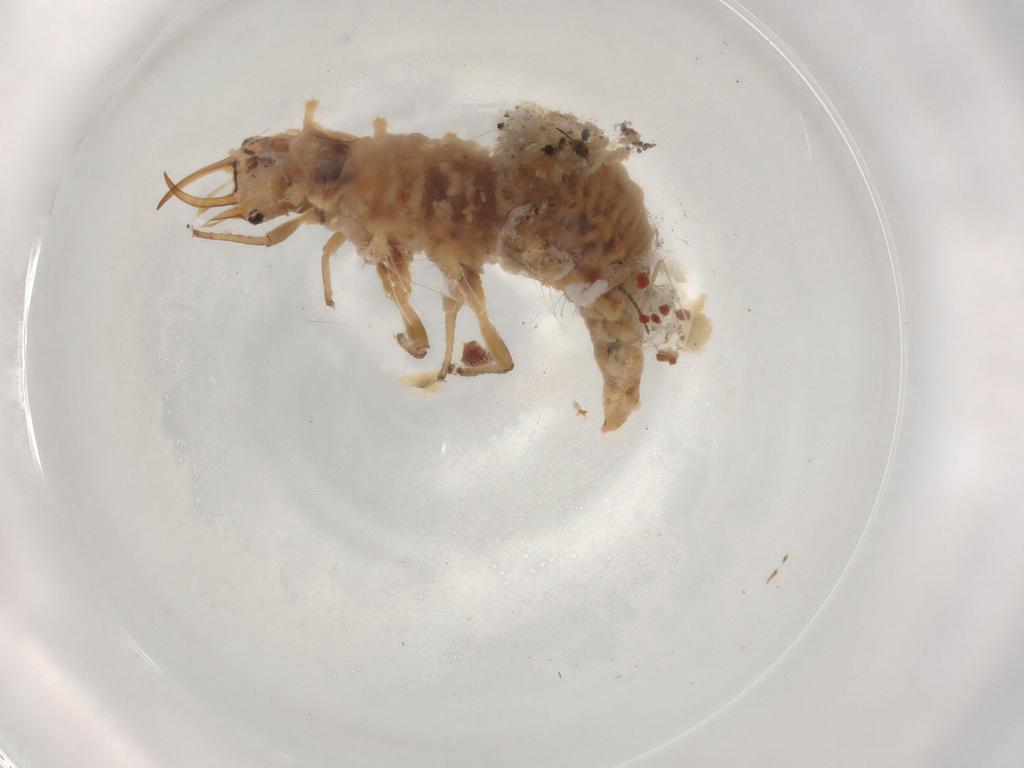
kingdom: Animalia
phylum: Arthropoda
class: Insecta
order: Neuroptera
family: Chrysopidae
